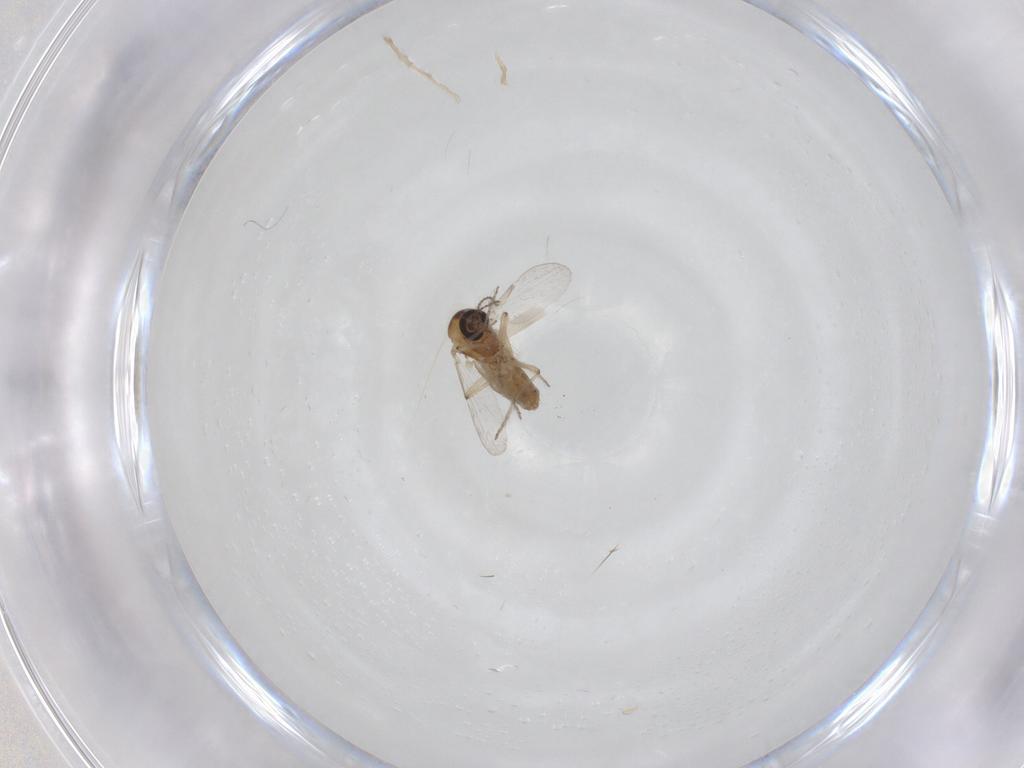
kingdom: Animalia
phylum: Arthropoda
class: Insecta
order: Diptera
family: Ceratopogonidae
